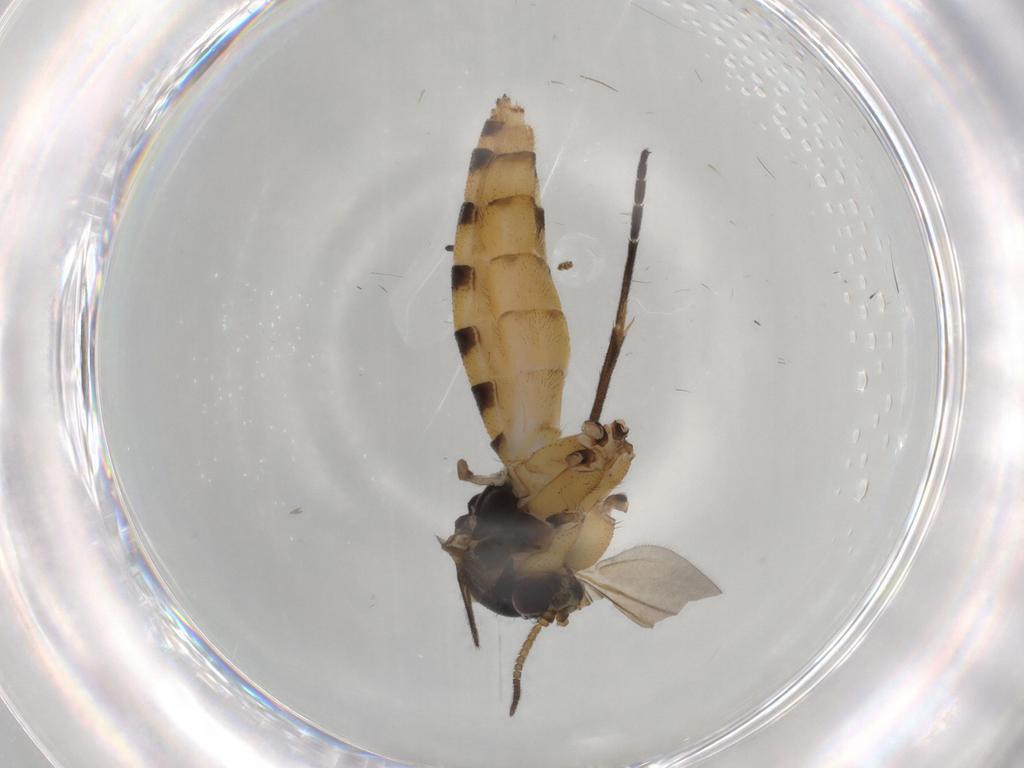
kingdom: Animalia
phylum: Arthropoda
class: Insecta
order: Diptera
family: Mycetophilidae
